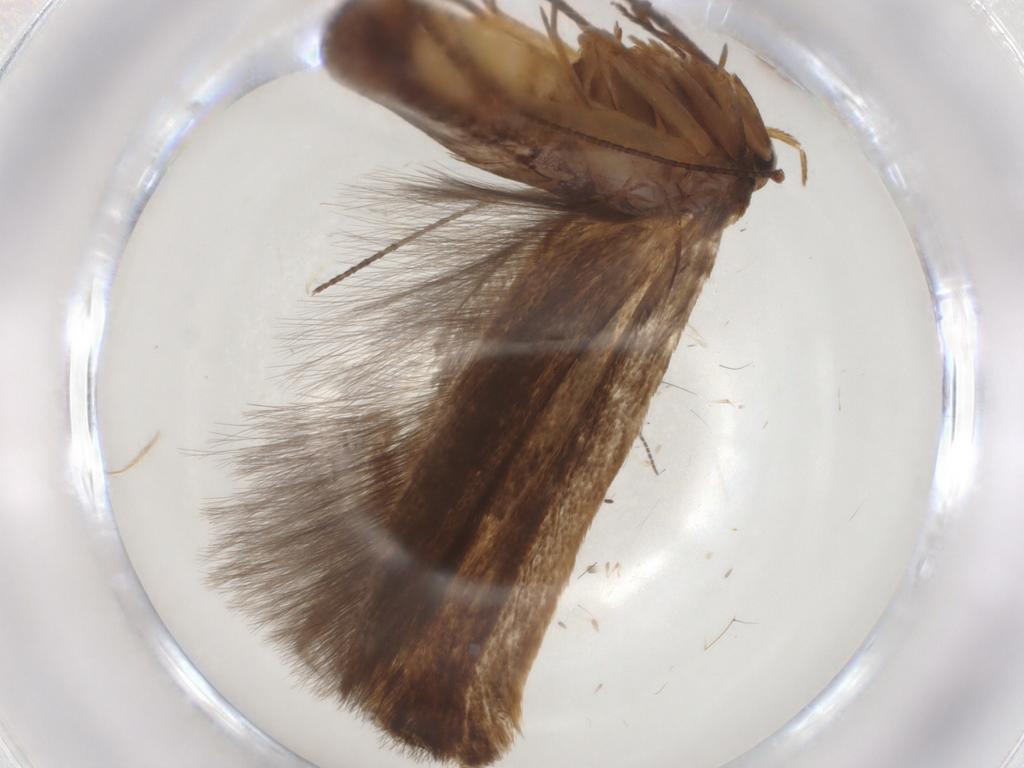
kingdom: Animalia
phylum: Arthropoda
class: Insecta
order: Lepidoptera
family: Scythrididae
